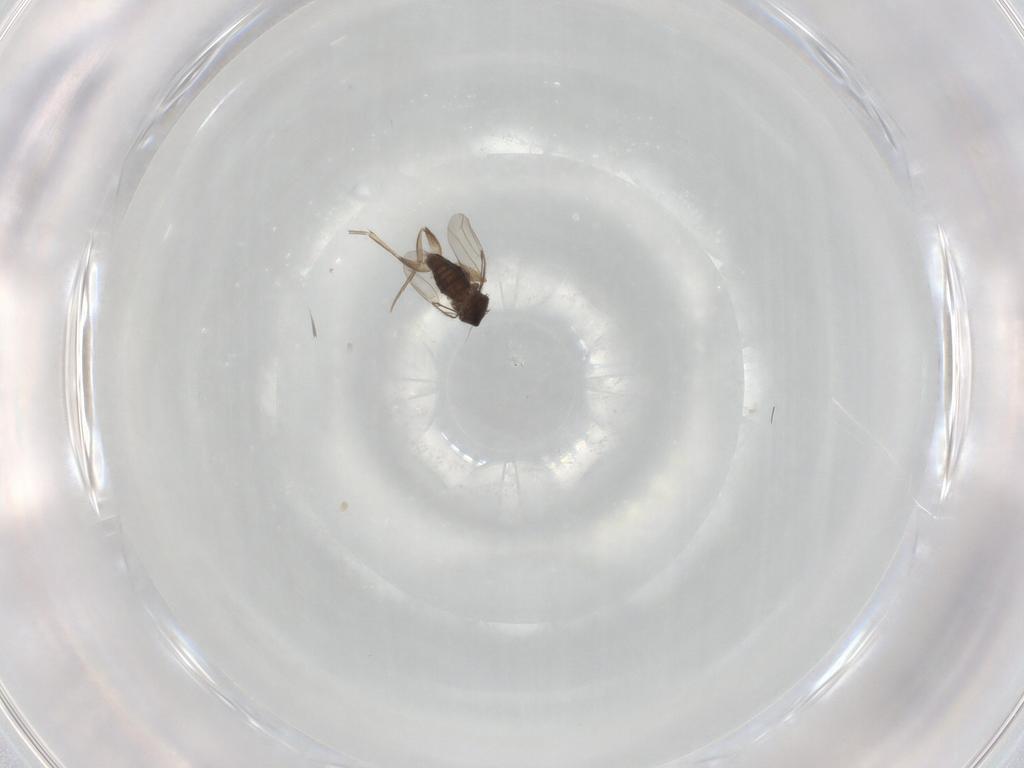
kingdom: Animalia
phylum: Arthropoda
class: Insecta
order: Diptera
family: Phoridae
